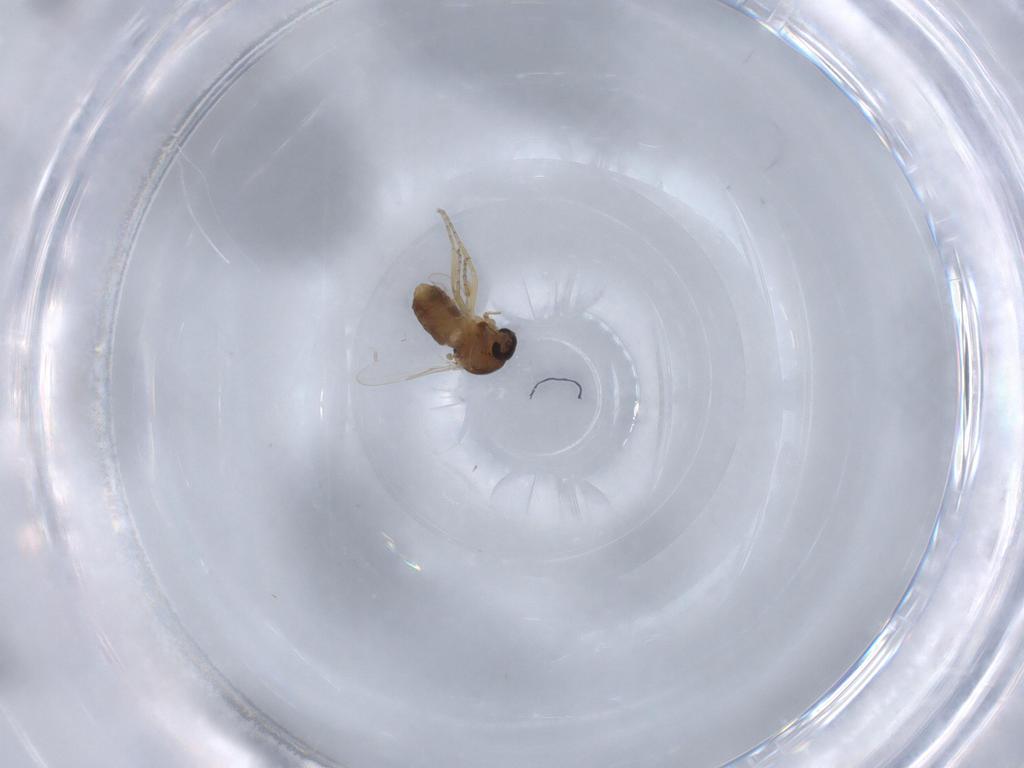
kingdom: Animalia
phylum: Arthropoda
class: Insecta
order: Diptera
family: Ceratopogonidae
